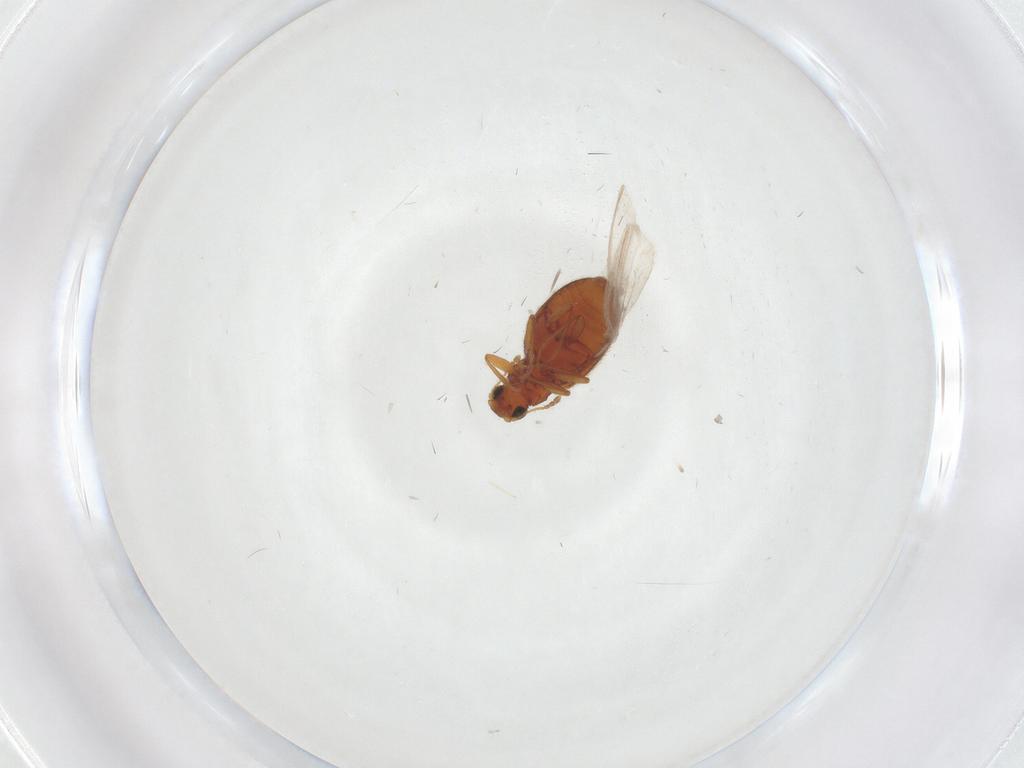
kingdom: Animalia
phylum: Arthropoda
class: Insecta
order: Coleoptera
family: Latridiidae
